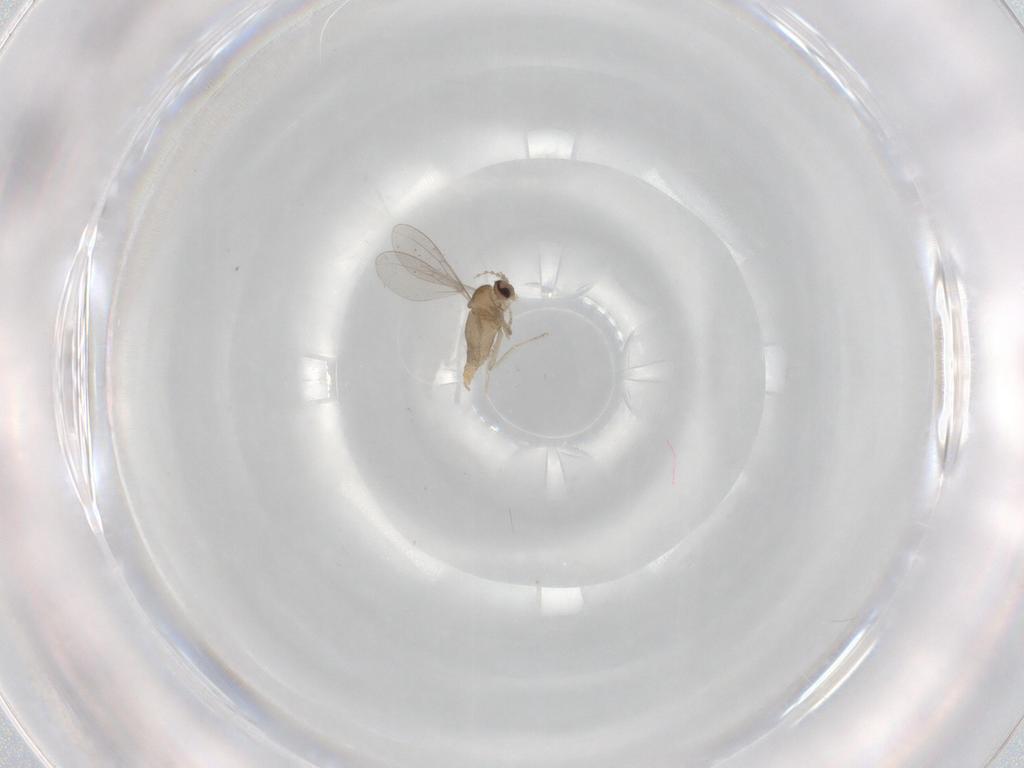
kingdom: Animalia
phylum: Arthropoda
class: Insecta
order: Diptera
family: Cecidomyiidae
